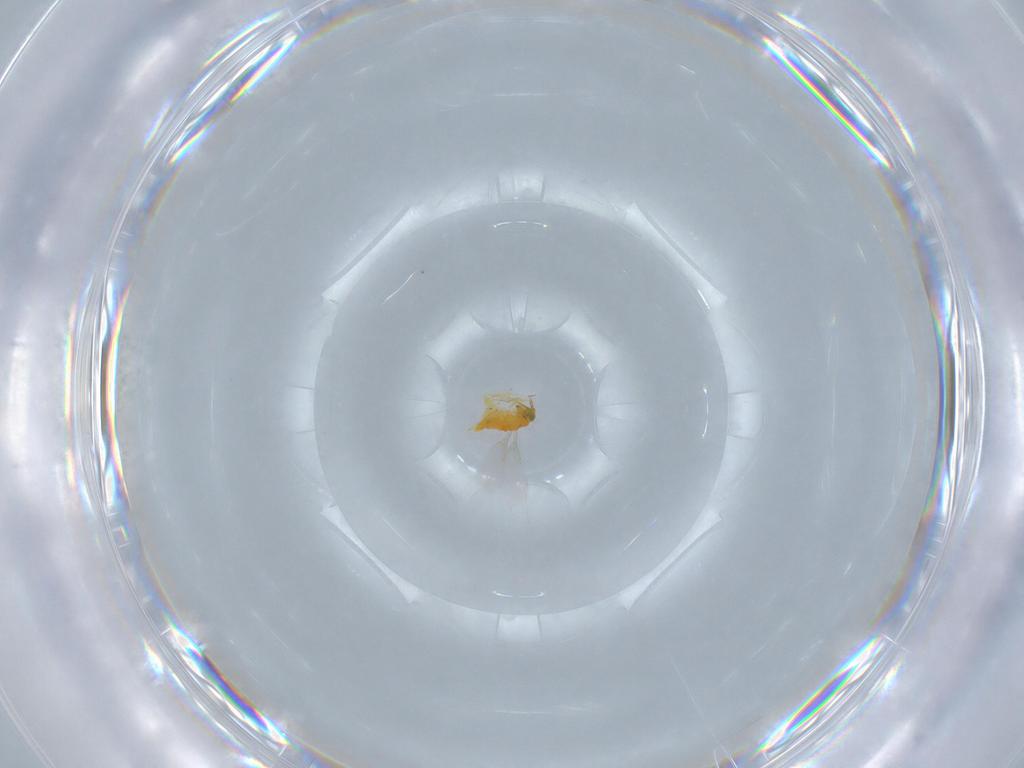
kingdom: Animalia
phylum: Arthropoda
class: Insecta
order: Hymenoptera
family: Aphelinidae
